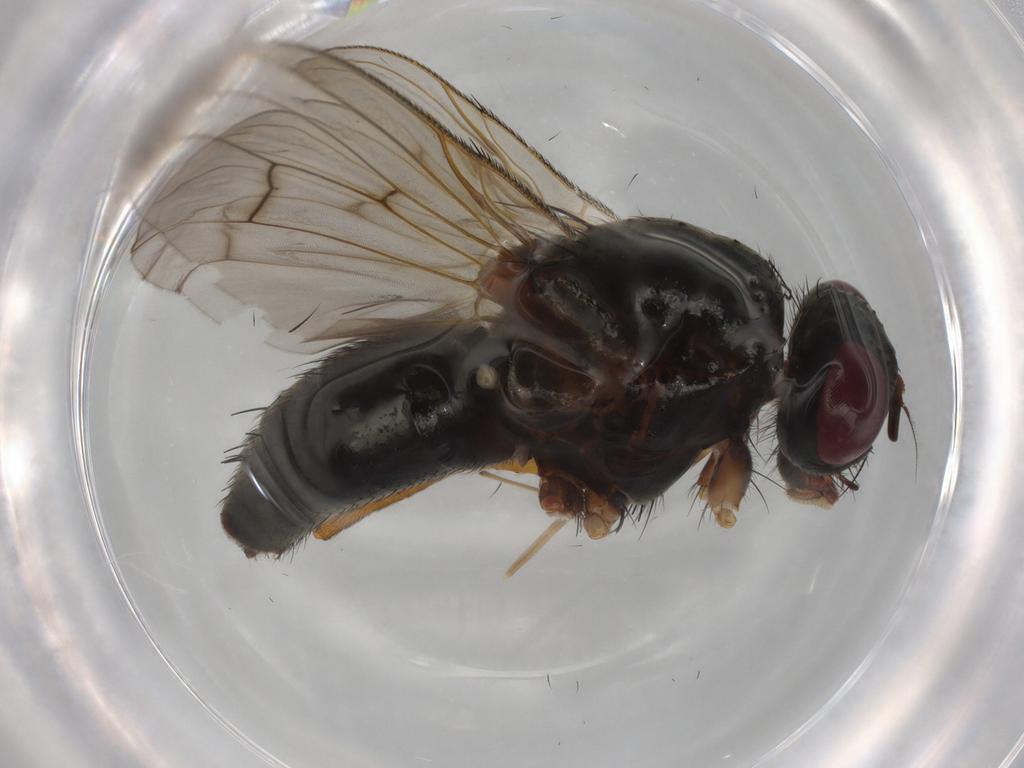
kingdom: Animalia
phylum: Arthropoda
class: Insecta
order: Diptera
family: Muscidae
